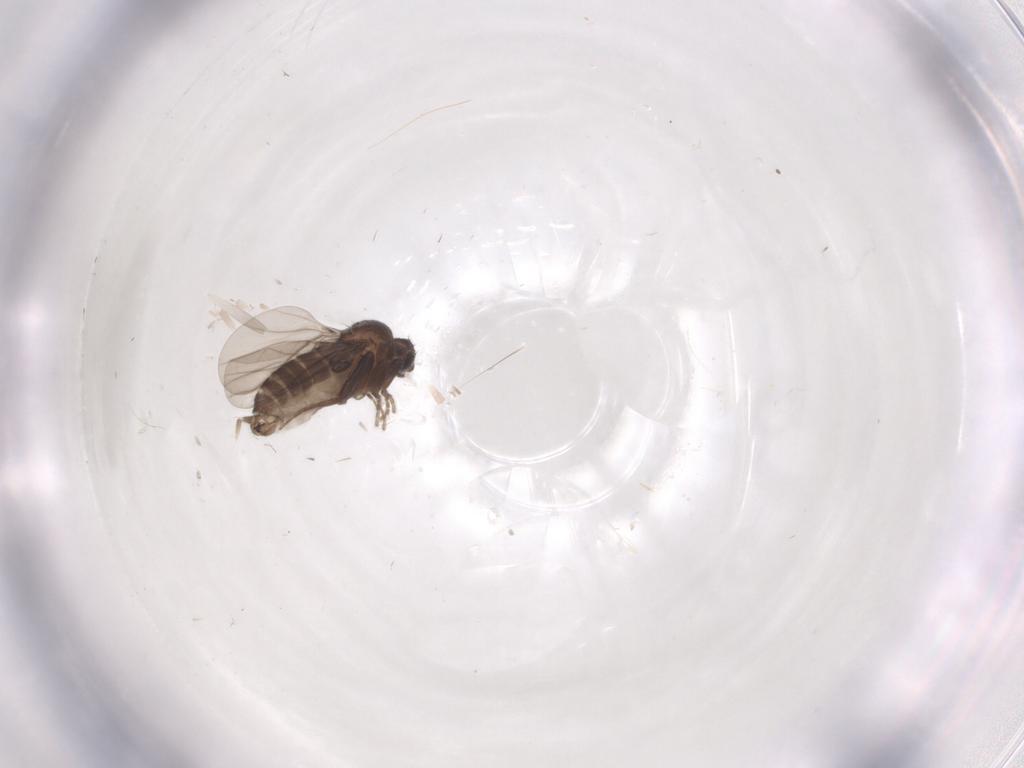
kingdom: Animalia
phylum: Arthropoda
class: Insecta
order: Diptera
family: Phoridae
